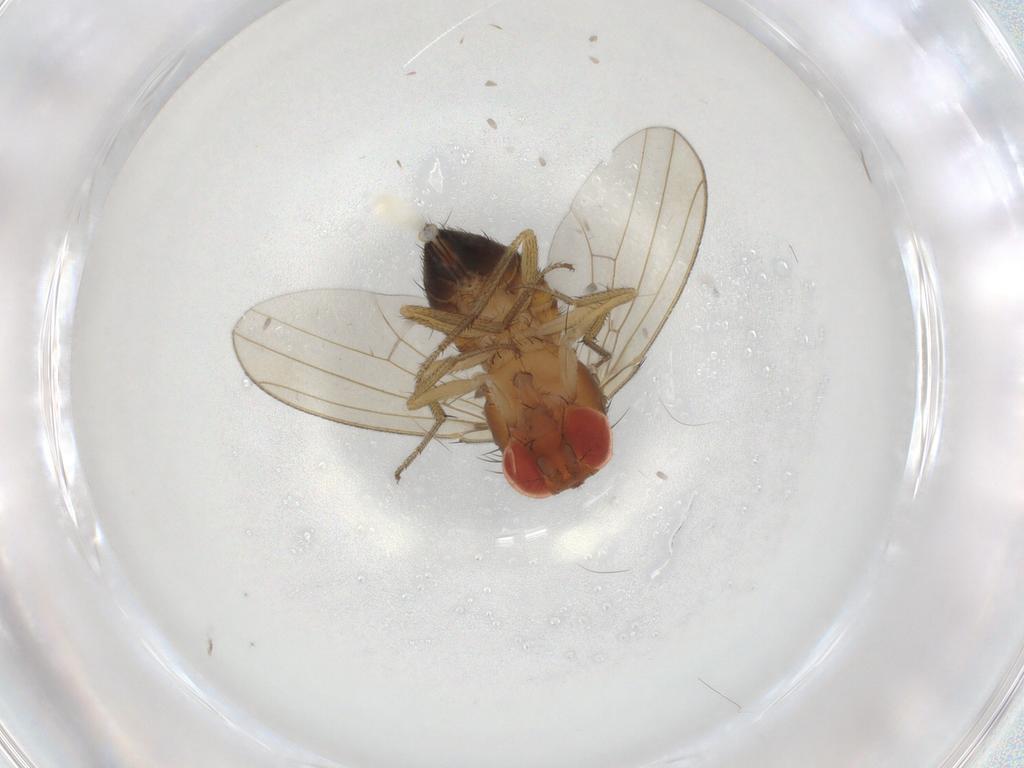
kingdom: Animalia
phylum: Arthropoda
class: Insecta
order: Diptera
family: Drosophilidae
